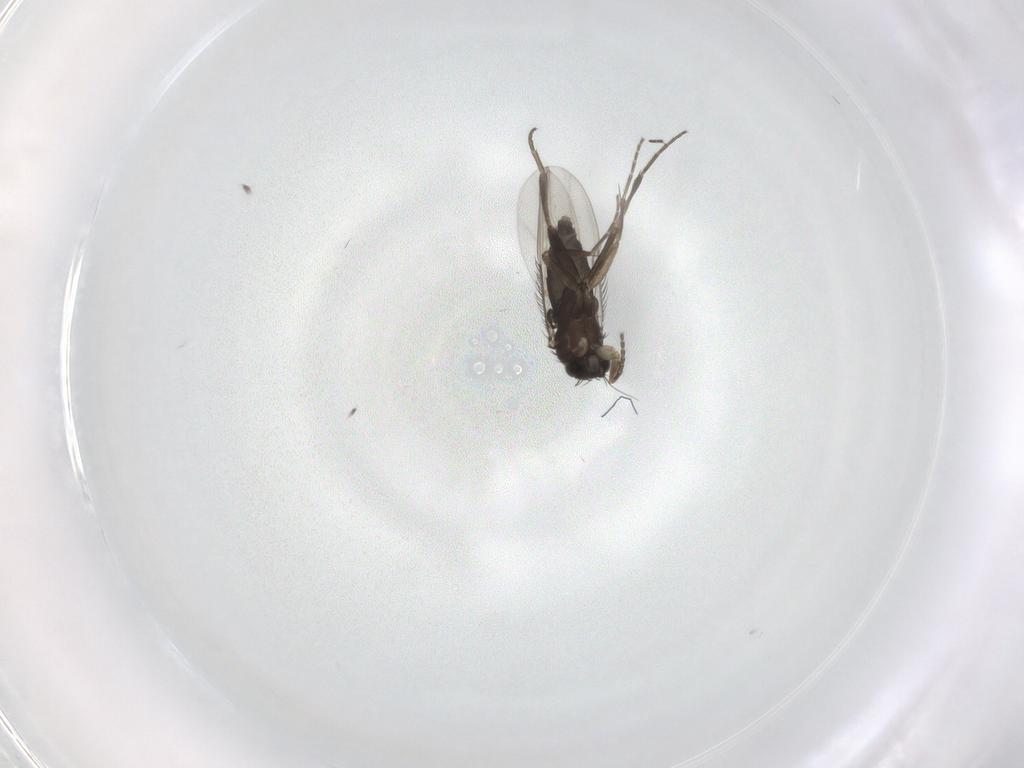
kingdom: Animalia
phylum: Arthropoda
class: Insecta
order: Diptera
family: Phoridae
